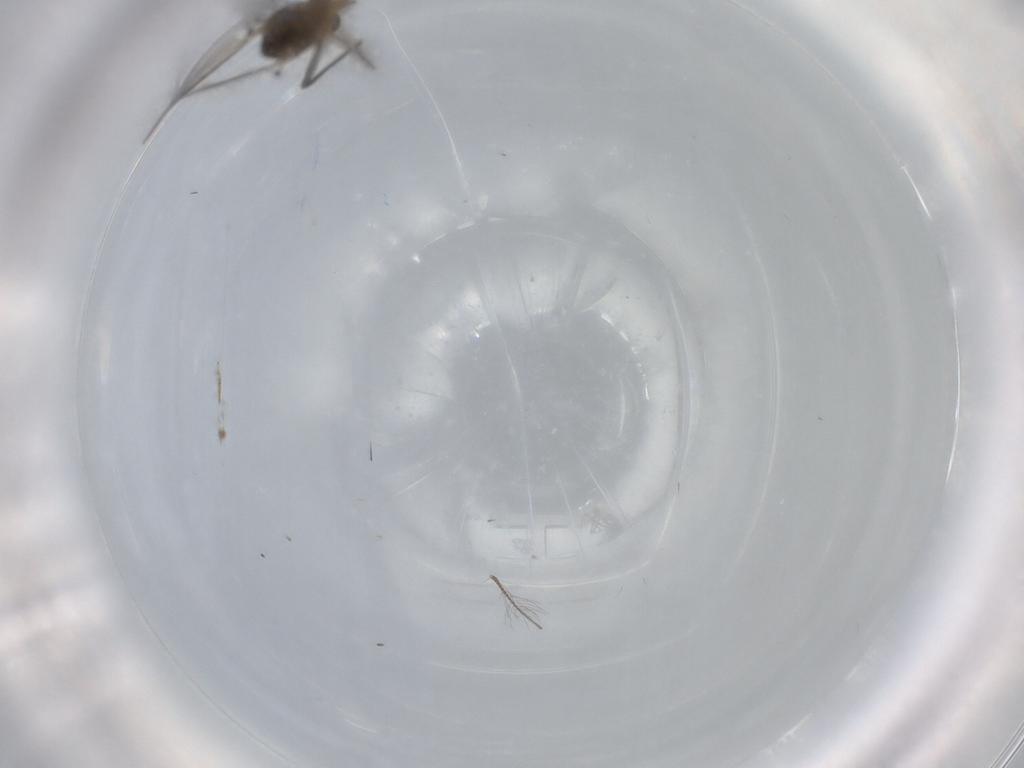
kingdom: Animalia
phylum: Arthropoda
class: Insecta
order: Diptera
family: Chironomidae
